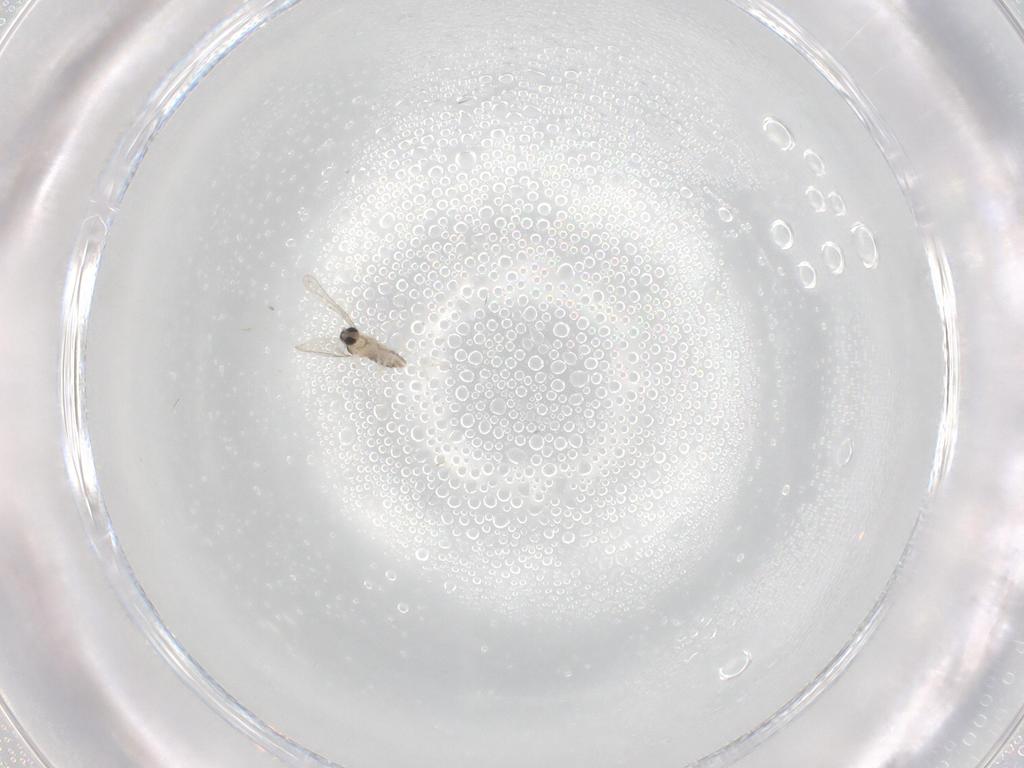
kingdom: Animalia
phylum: Arthropoda
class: Insecta
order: Diptera
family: Cecidomyiidae
